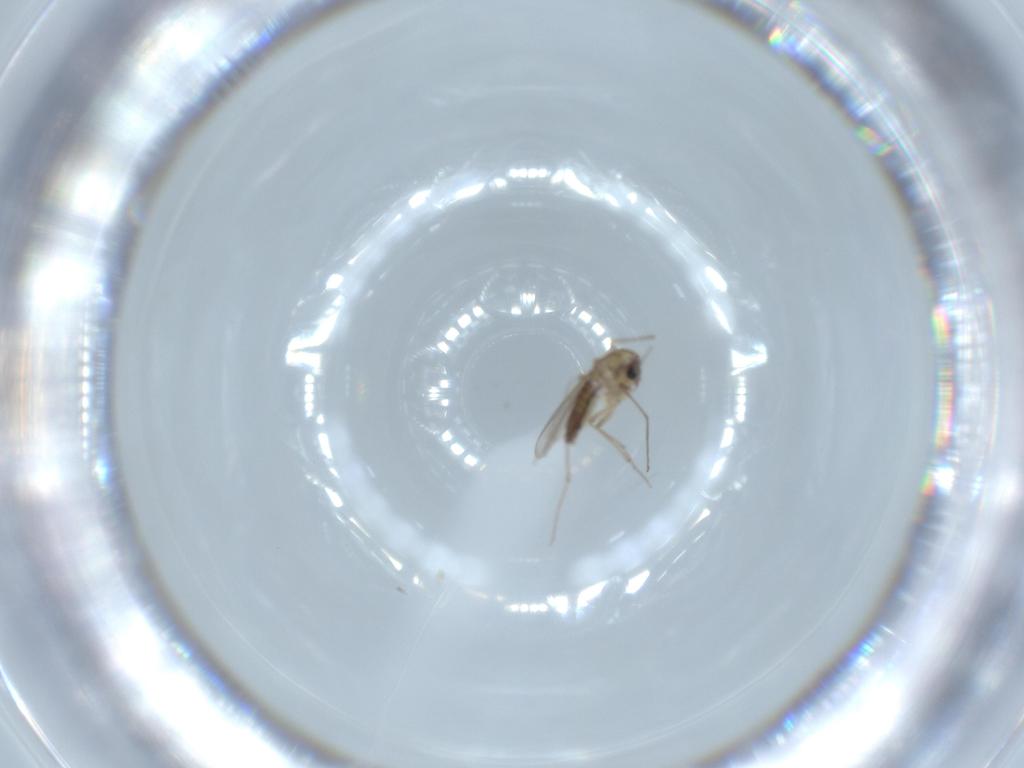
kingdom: Animalia
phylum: Arthropoda
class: Insecta
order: Diptera
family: Chironomidae
